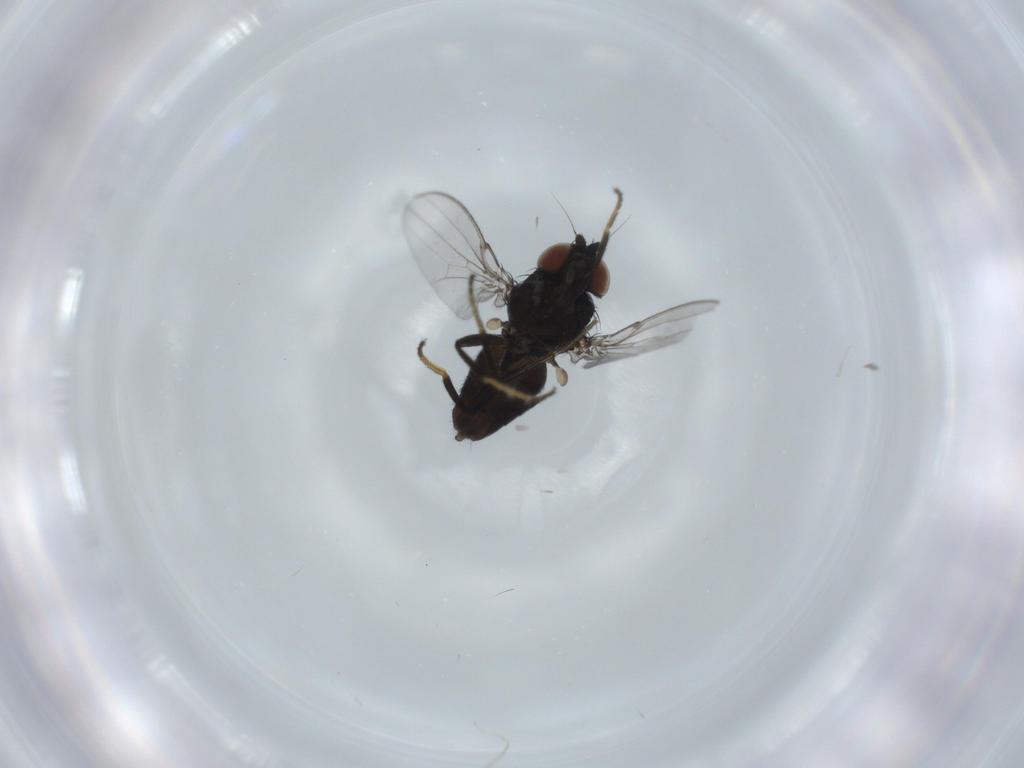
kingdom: Animalia
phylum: Arthropoda
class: Insecta
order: Diptera
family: Milichiidae
